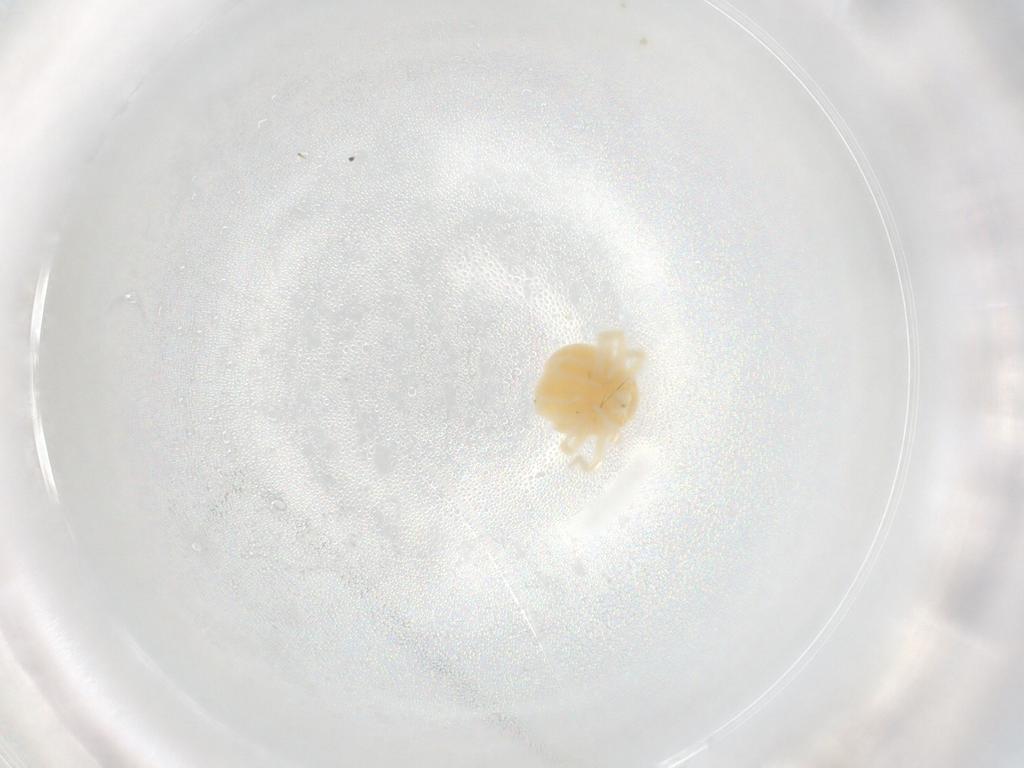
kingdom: Animalia
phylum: Arthropoda
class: Arachnida
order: Trombidiformes
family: Anystidae
